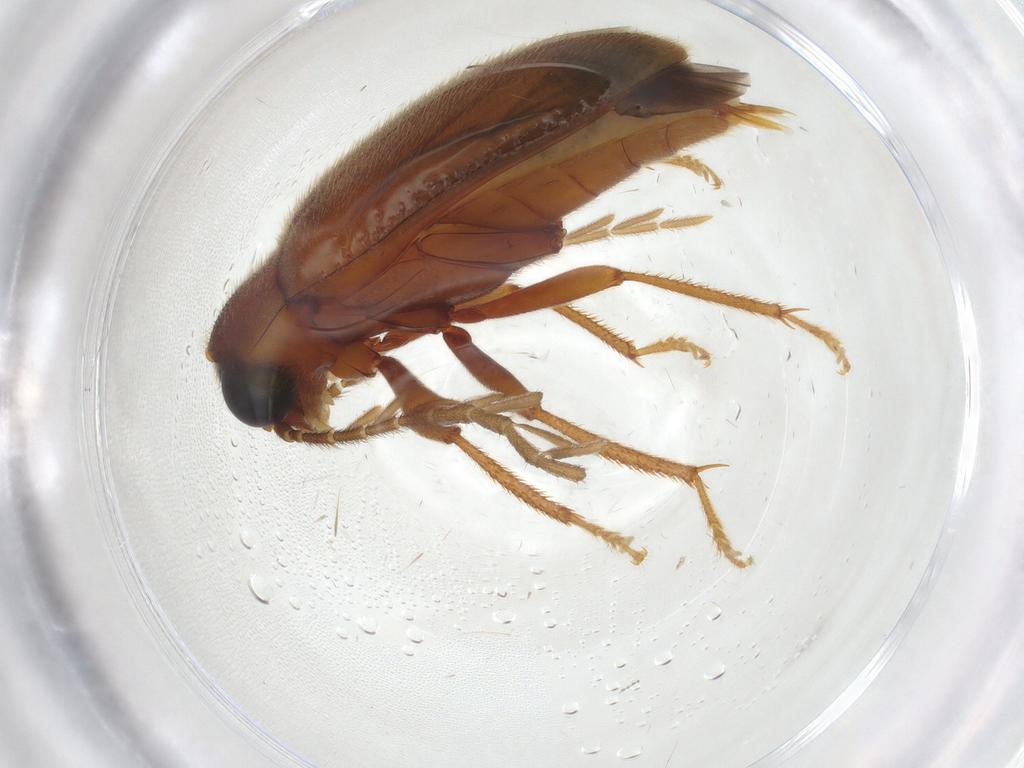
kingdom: Animalia
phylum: Arthropoda
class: Insecta
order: Coleoptera
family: Ptilodactylidae
